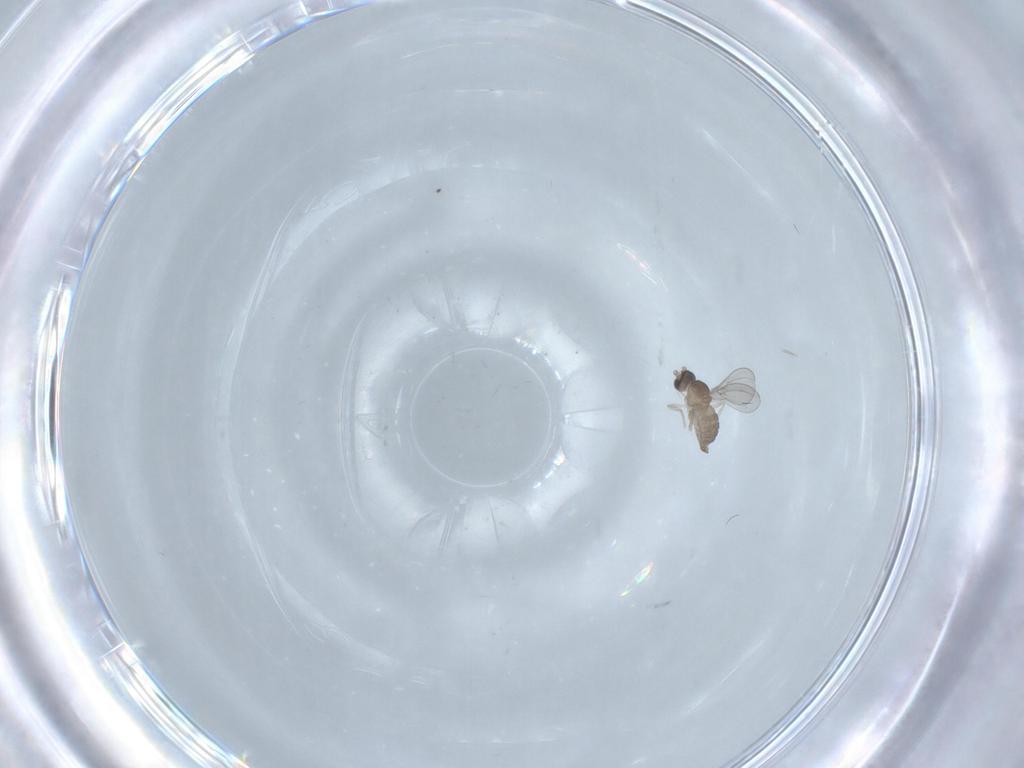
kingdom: Animalia
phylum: Arthropoda
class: Insecta
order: Diptera
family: Cecidomyiidae
